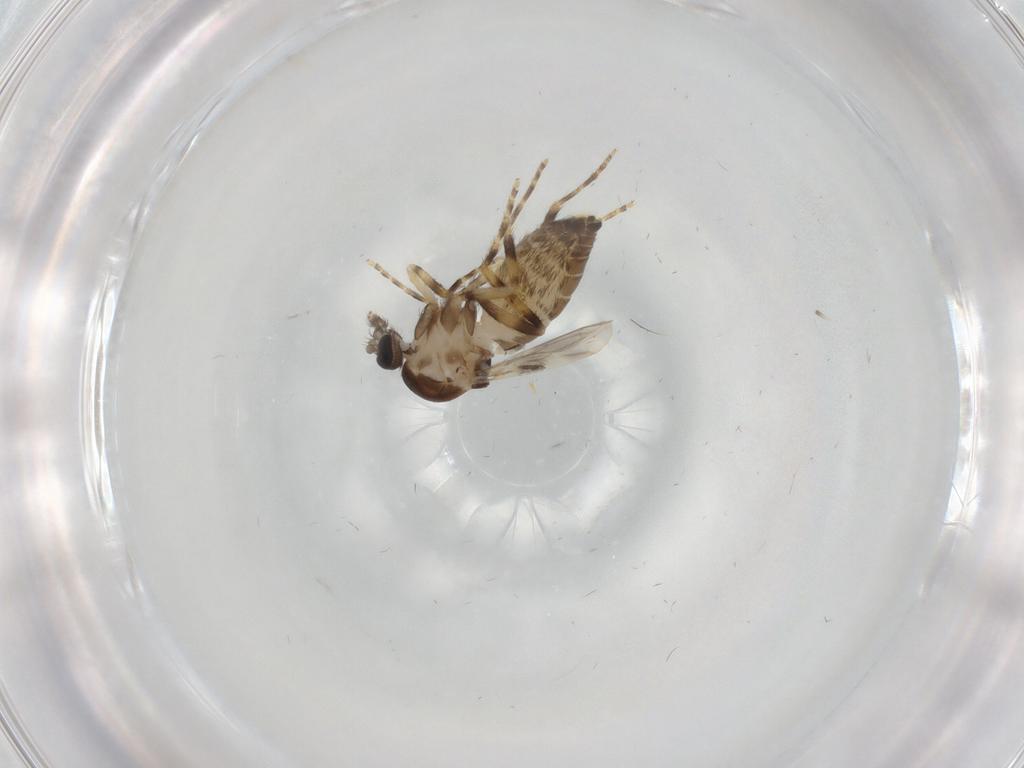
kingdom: Animalia
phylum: Arthropoda
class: Insecta
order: Diptera
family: Ceratopogonidae
